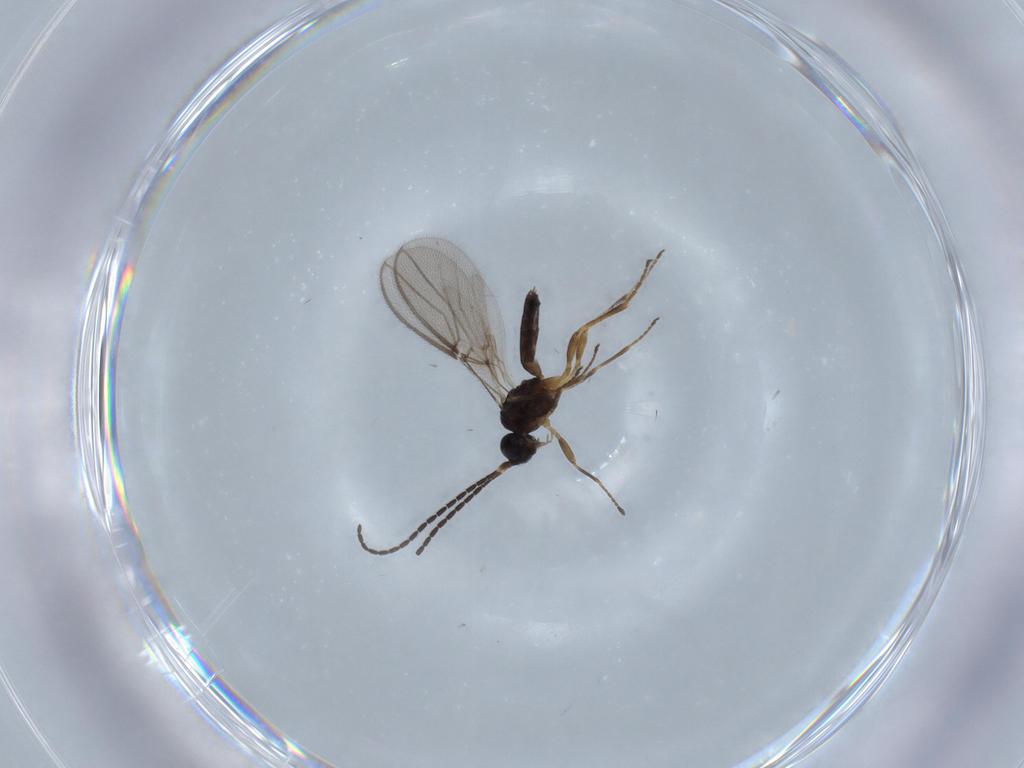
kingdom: Animalia
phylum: Arthropoda
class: Insecta
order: Hymenoptera
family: Braconidae
